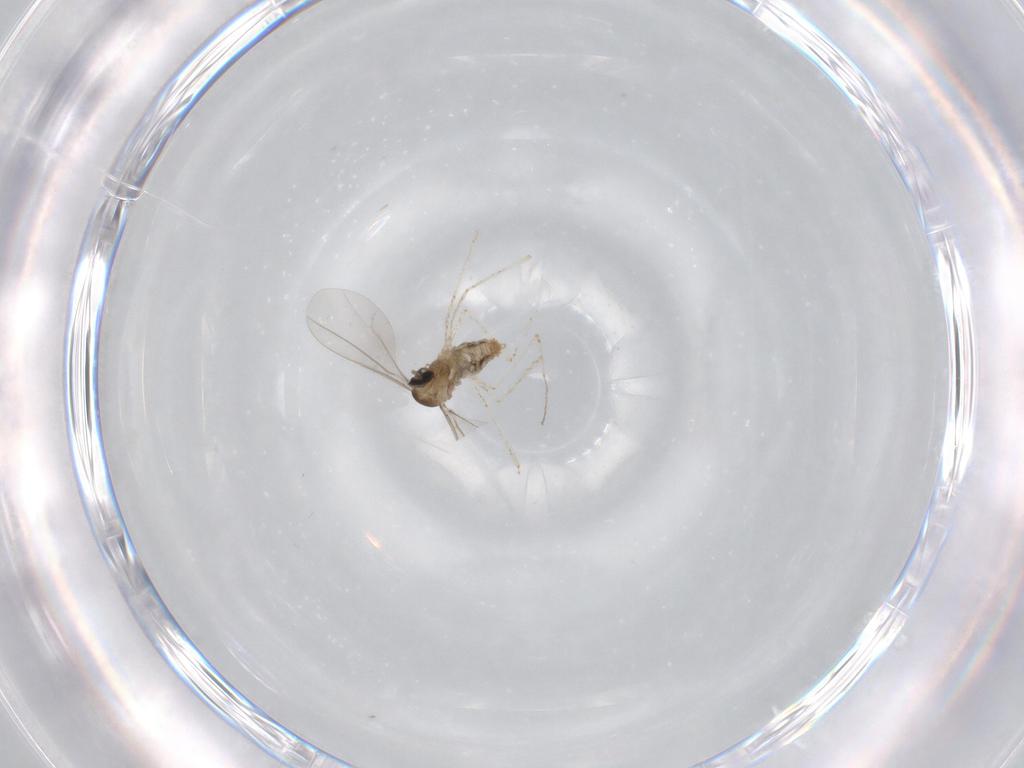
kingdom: Animalia
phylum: Arthropoda
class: Insecta
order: Diptera
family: Cecidomyiidae
